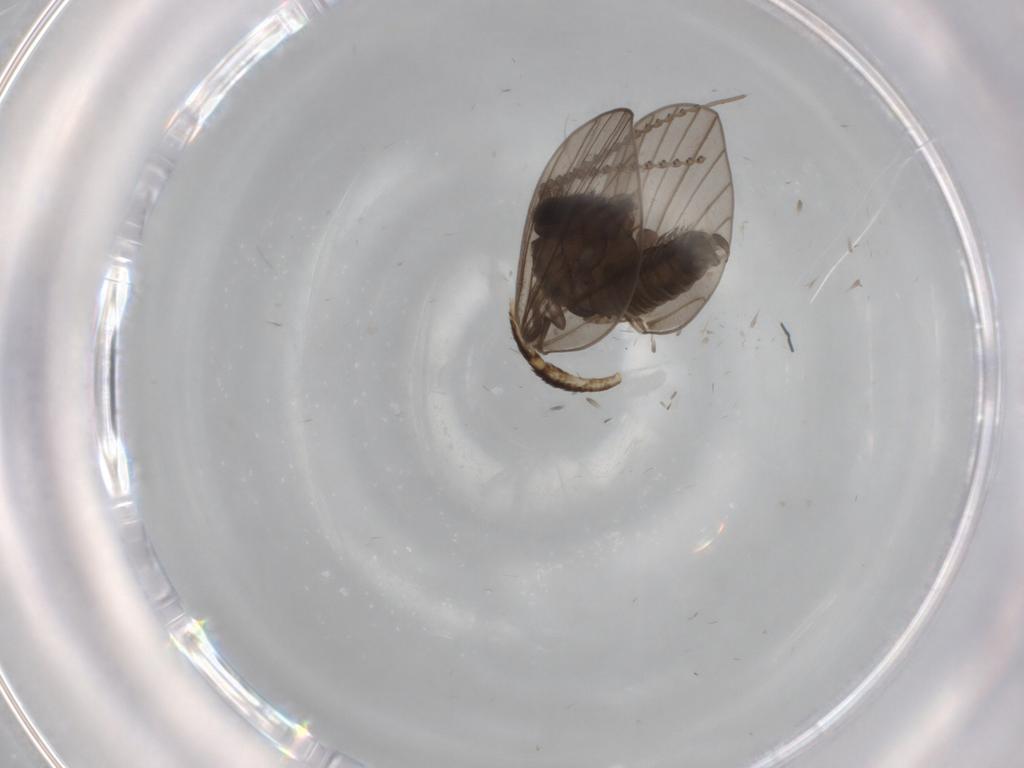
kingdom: Animalia
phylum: Arthropoda
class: Insecta
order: Diptera
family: Psychodidae
